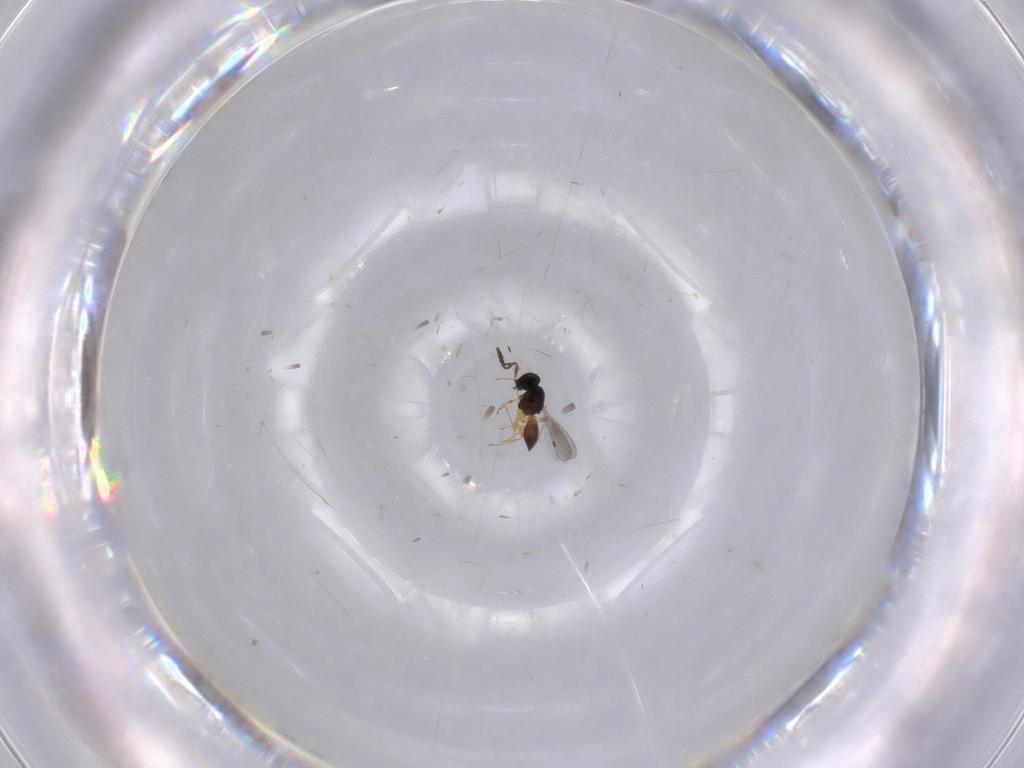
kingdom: Animalia
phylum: Arthropoda
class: Insecta
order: Hymenoptera
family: Scelionidae
